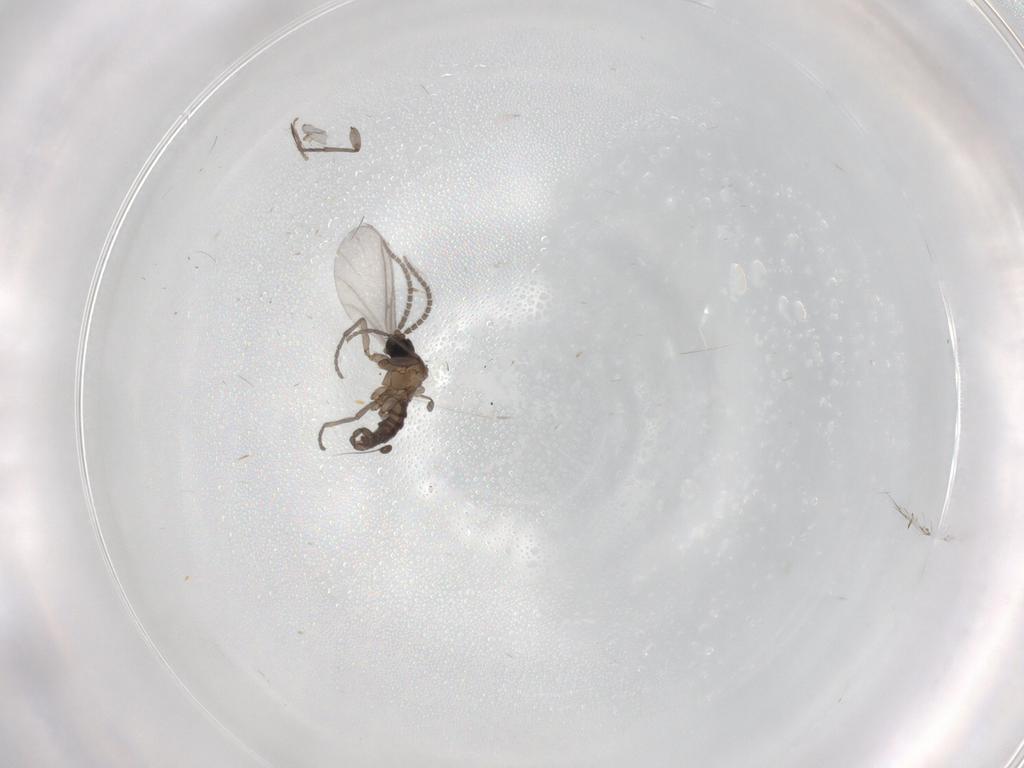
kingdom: Animalia
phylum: Arthropoda
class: Insecta
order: Diptera
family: Sciaridae
